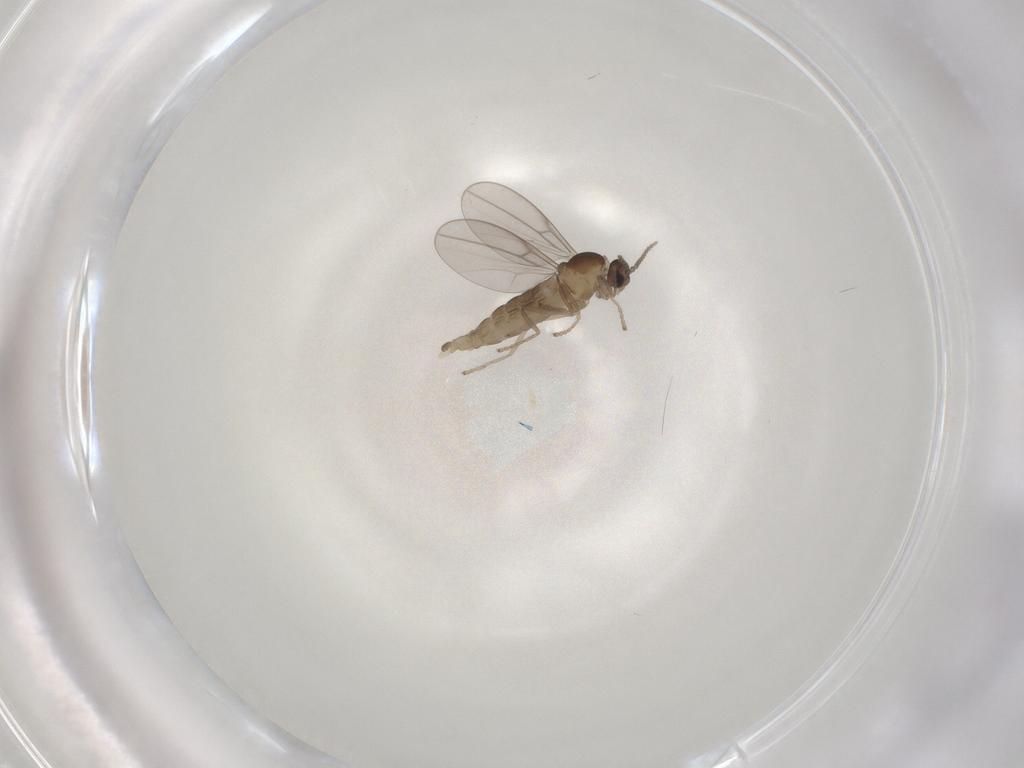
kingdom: Animalia
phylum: Arthropoda
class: Insecta
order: Diptera
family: Cecidomyiidae
